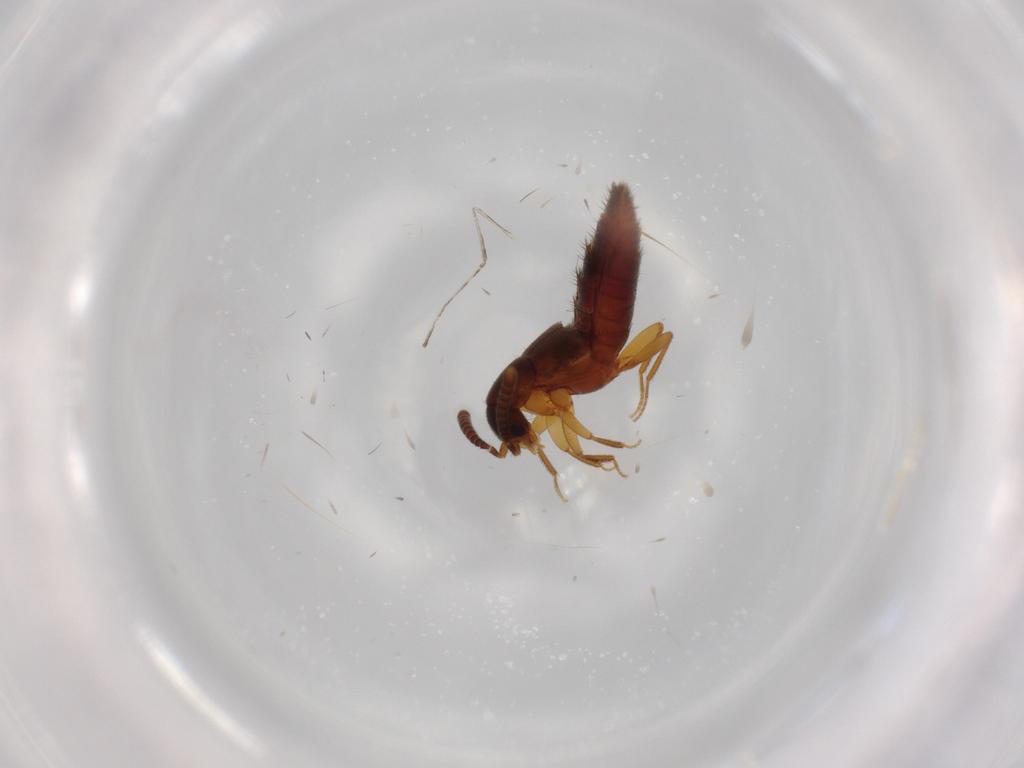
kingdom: Animalia
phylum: Arthropoda
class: Insecta
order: Coleoptera
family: Staphylinidae
